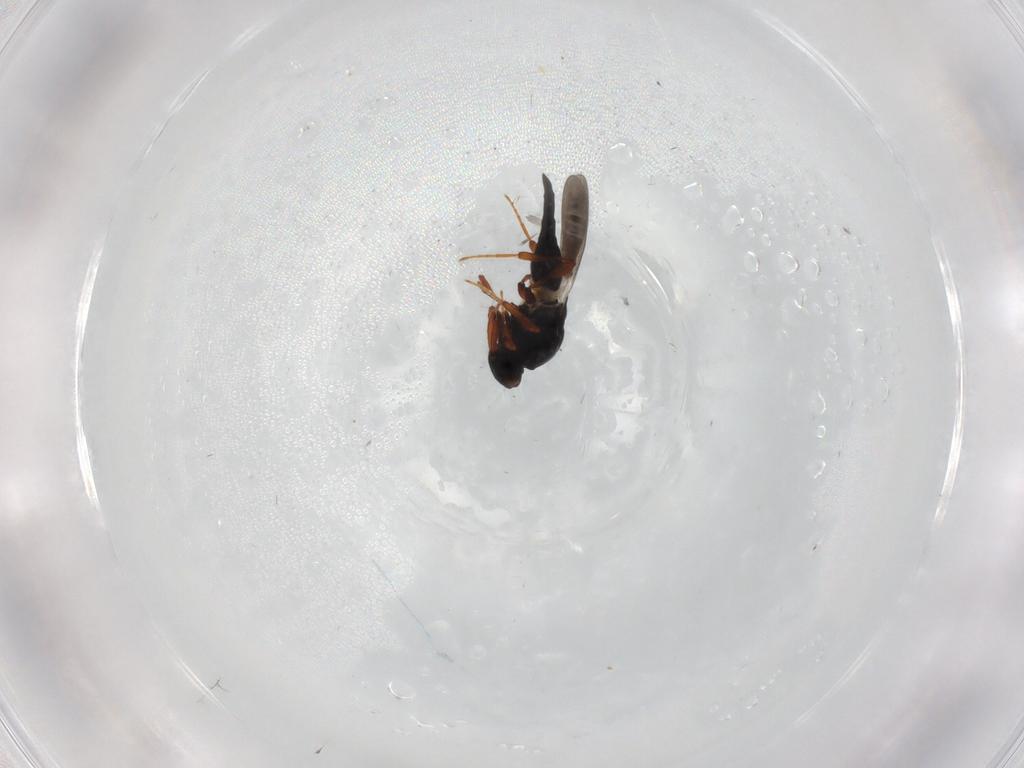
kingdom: Animalia
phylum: Arthropoda
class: Insecta
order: Hymenoptera
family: Platygastridae
